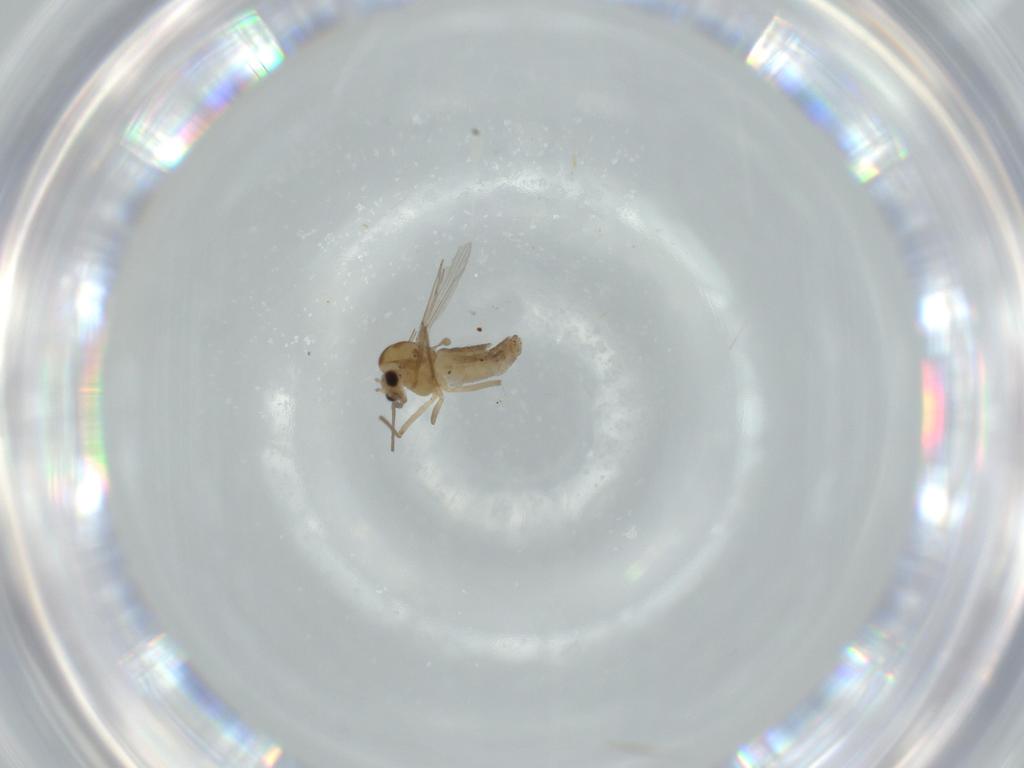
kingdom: Animalia
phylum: Arthropoda
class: Insecta
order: Diptera
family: Chironomidae
